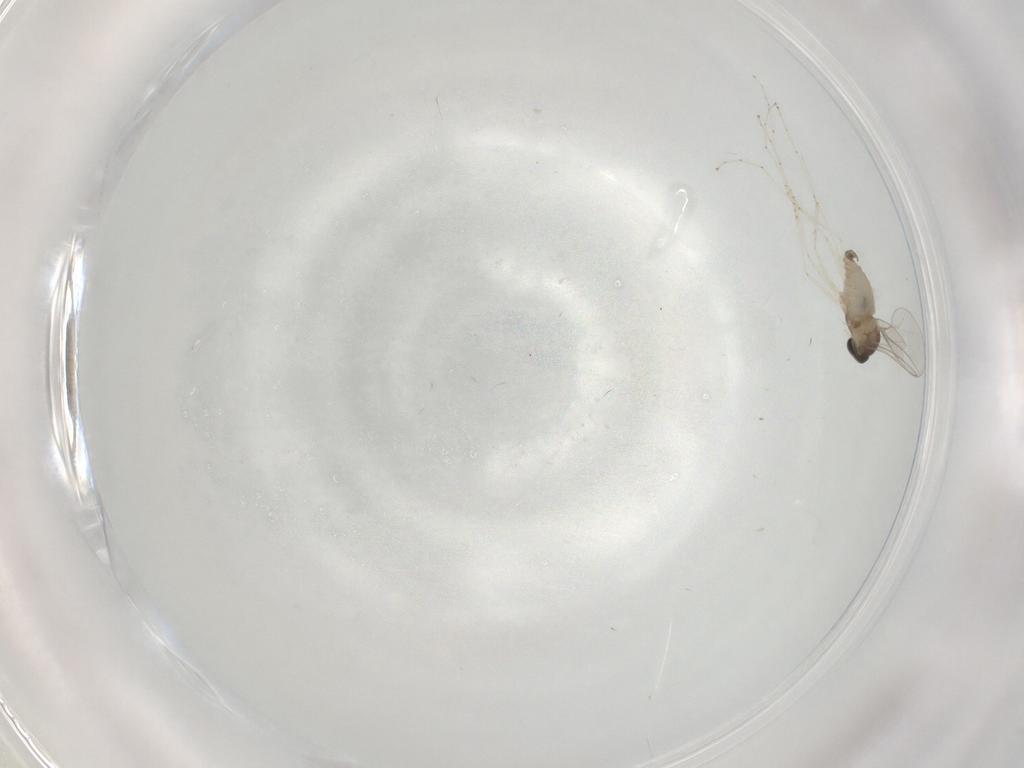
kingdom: Animalia
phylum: Arthropoda
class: Insecta
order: Diptera
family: Cecidomyiidae
